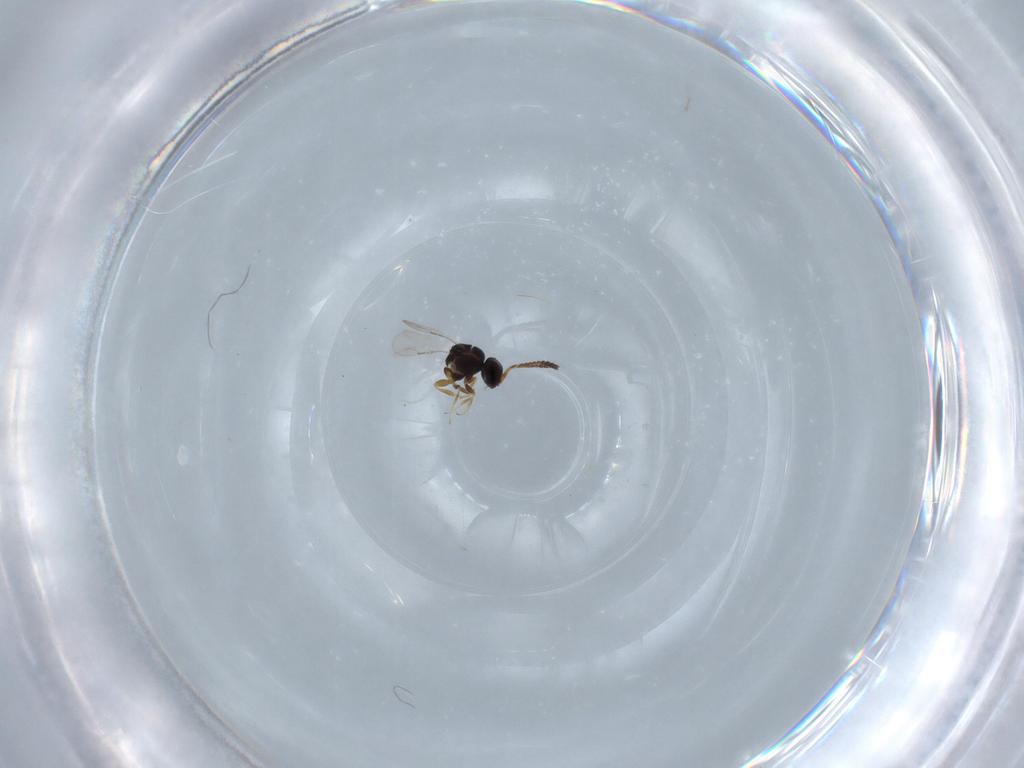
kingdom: Animalia
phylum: Arthropoda
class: Insecta
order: Hymenoptera
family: Ceraphronidae
